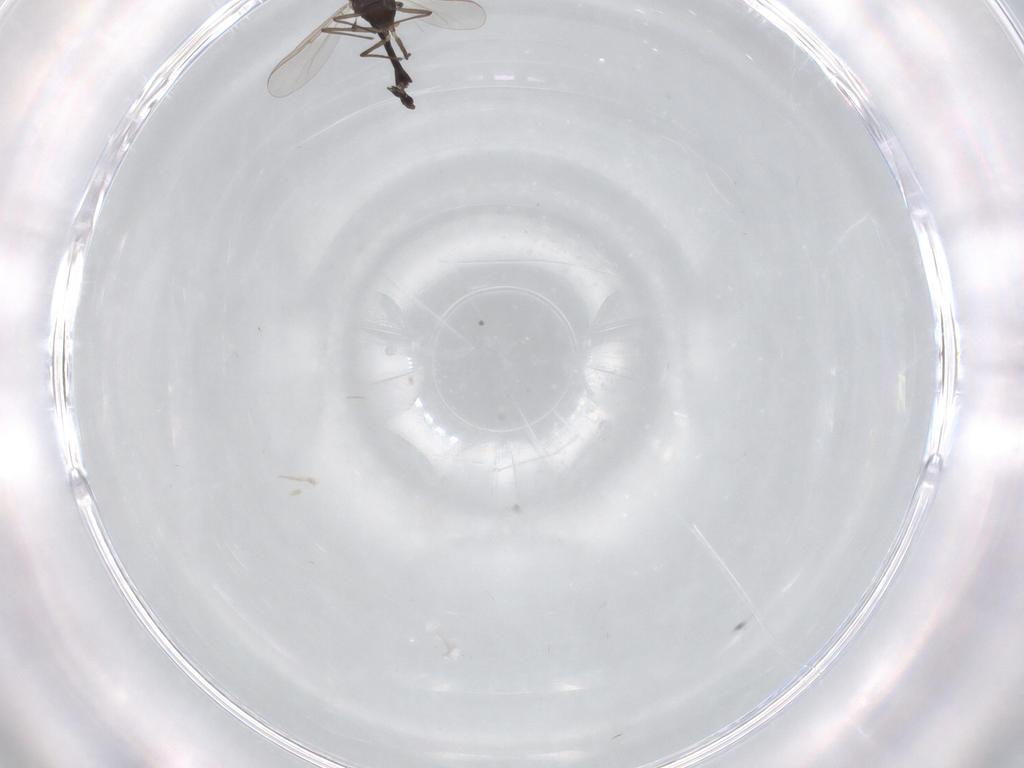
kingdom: Animalia
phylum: Arthropoda
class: Insecta
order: Diptera
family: Chironomidae
